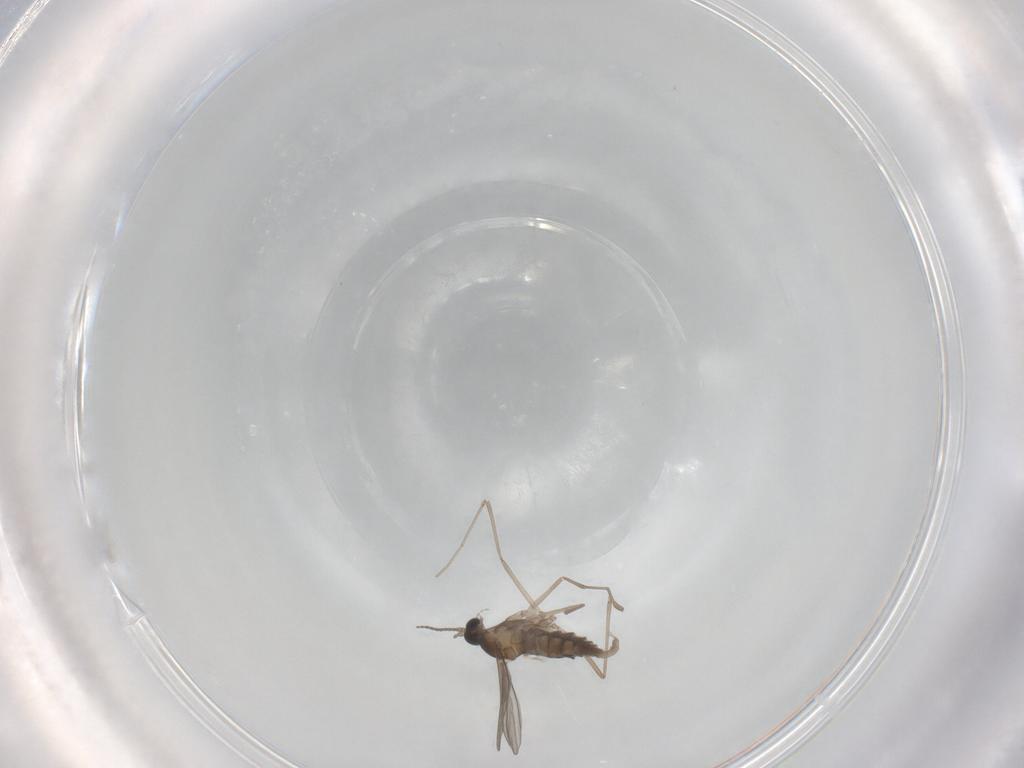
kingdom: Animalia
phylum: Arthropoda
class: Insecta
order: Diptera
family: Cecidomyiidae
